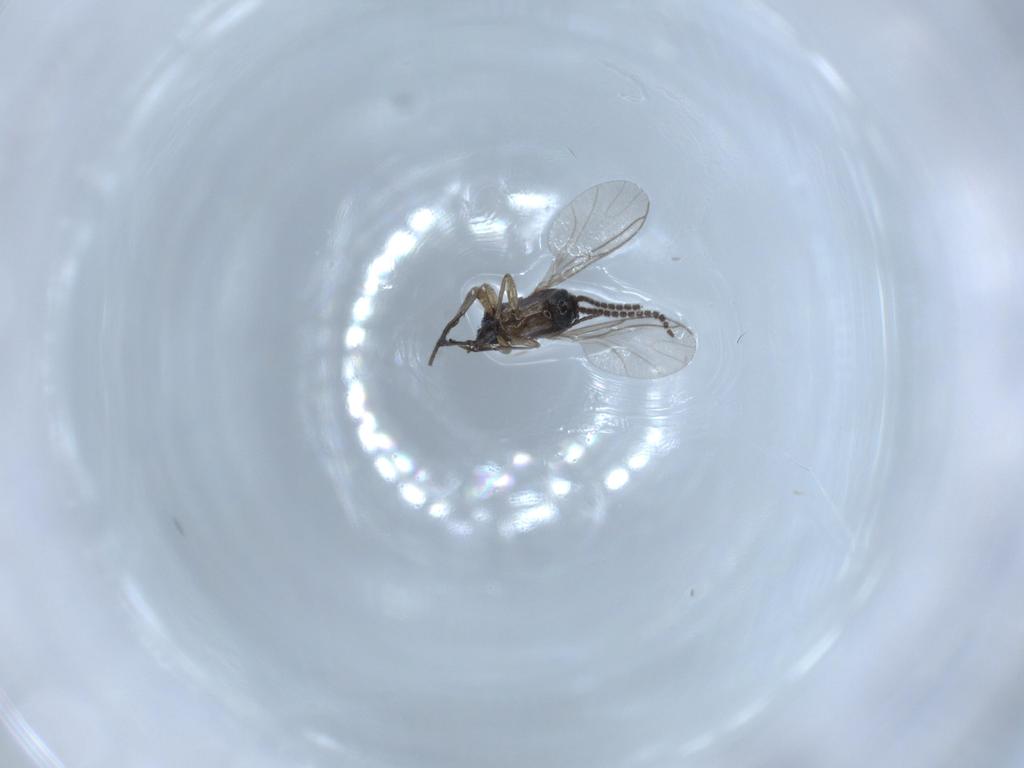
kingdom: Animalia
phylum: Arthropoda
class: Insecta
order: Diptera
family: Sciaridae
